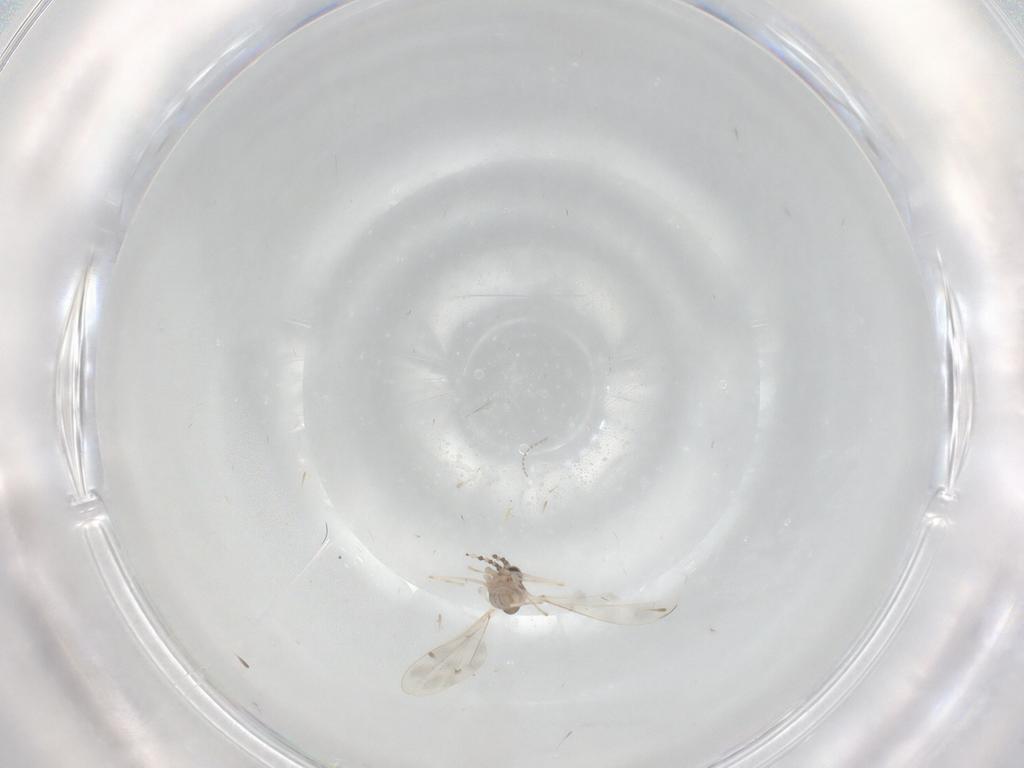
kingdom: Animalia
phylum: Arthropoda
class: Insecta
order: Diptera
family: Cecidomyiidae
